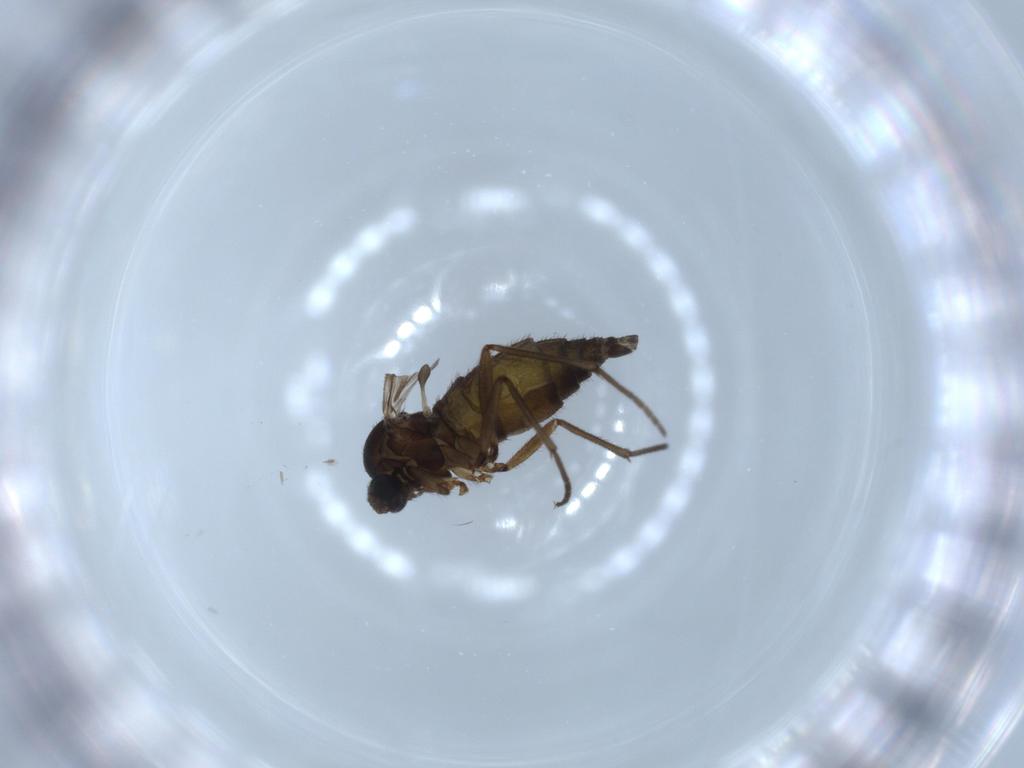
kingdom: Animalia
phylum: Arthropoda
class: Insecta
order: Diptera
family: Sciaridae
